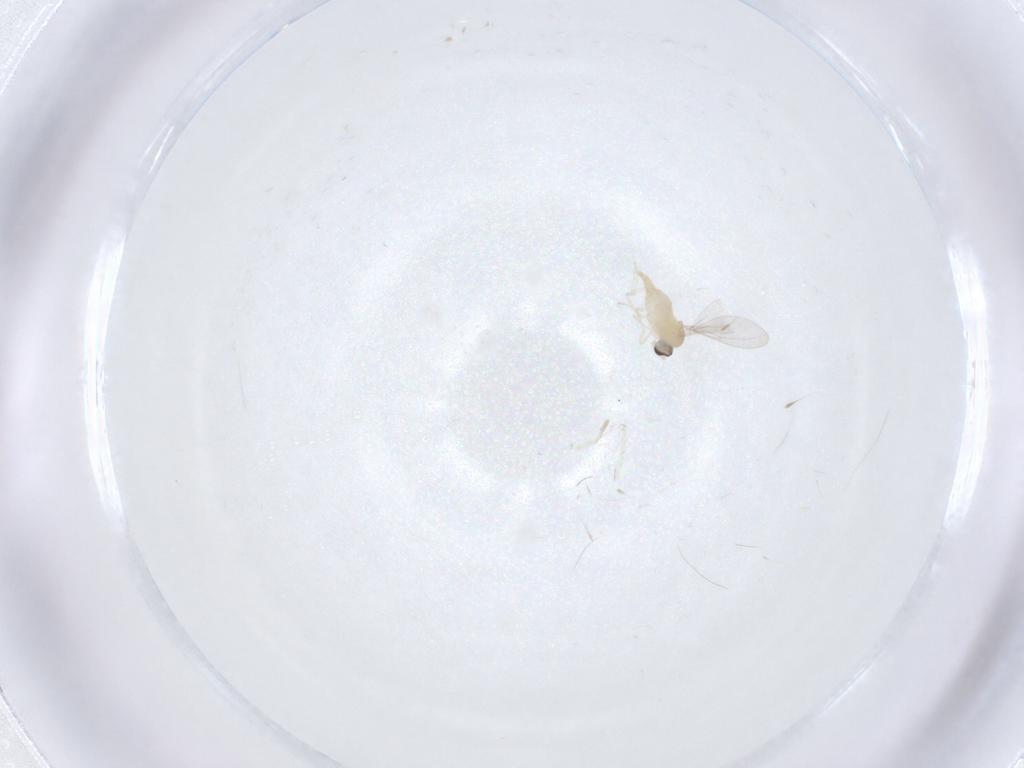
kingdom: Animalia
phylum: Arthropoda
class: Insecta
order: Diptera
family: Cecidomyiidae
